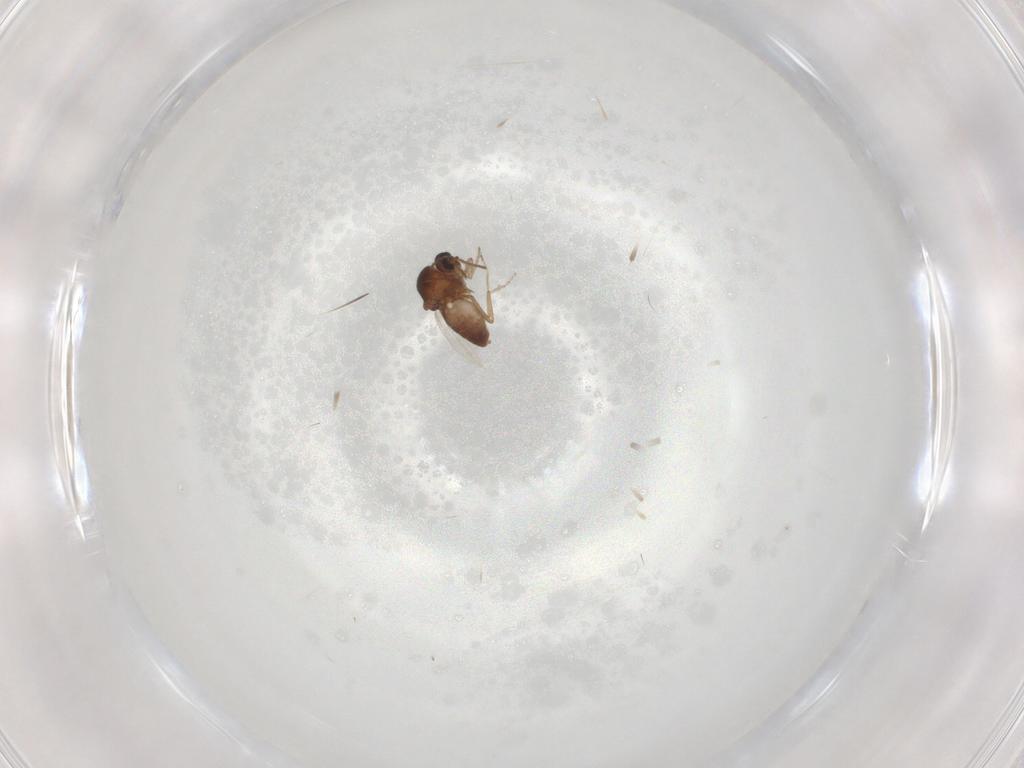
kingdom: Animalia
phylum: Arthropoda
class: Insecta
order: Diptera
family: Ceratopogonidae
